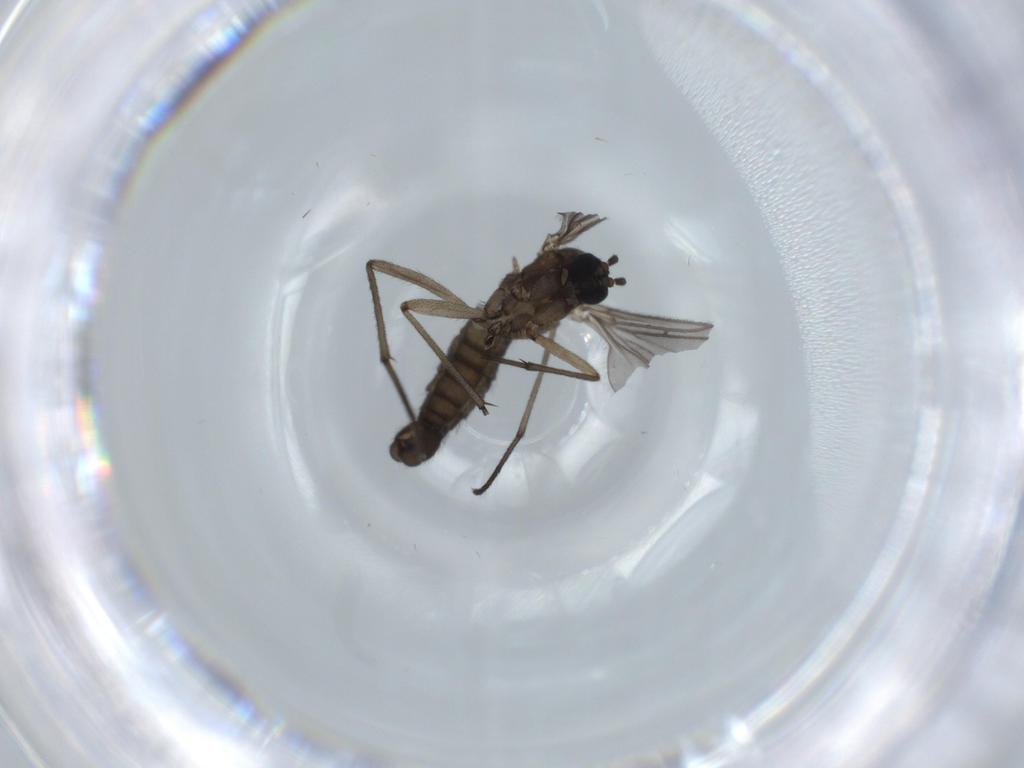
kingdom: Animalia
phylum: Arthropoda
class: Insecta
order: Diptera
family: Sciaridae
